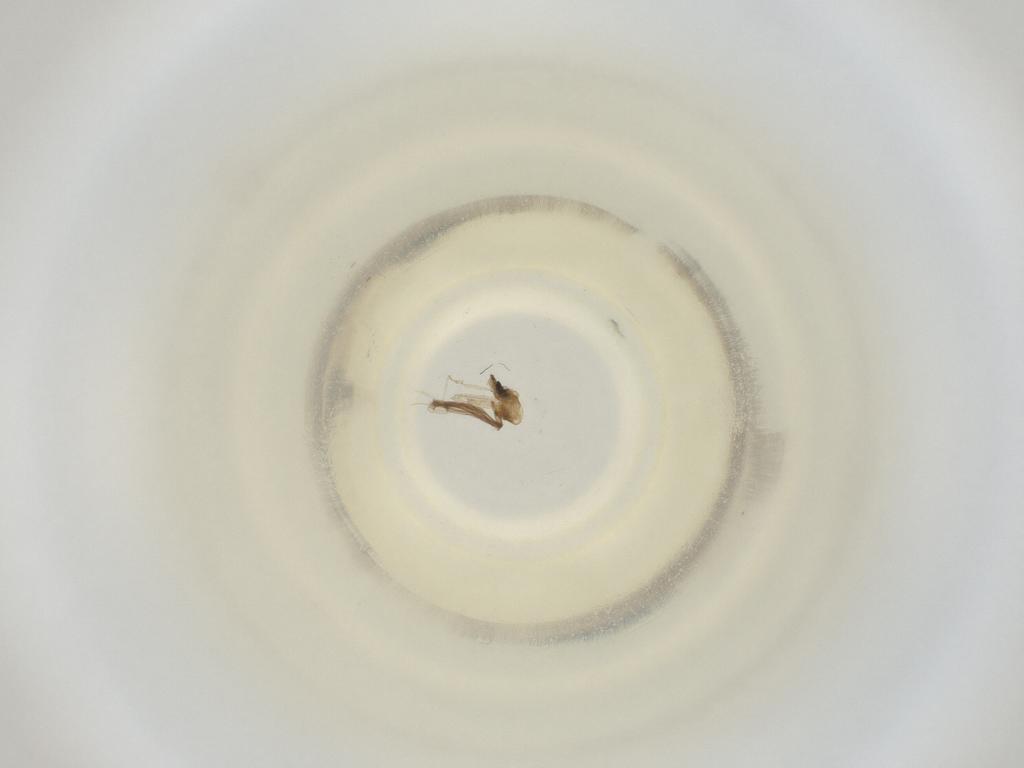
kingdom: Animalia
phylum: Arthropoda
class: Insecta
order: Diptera
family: Cecidomyiidae
